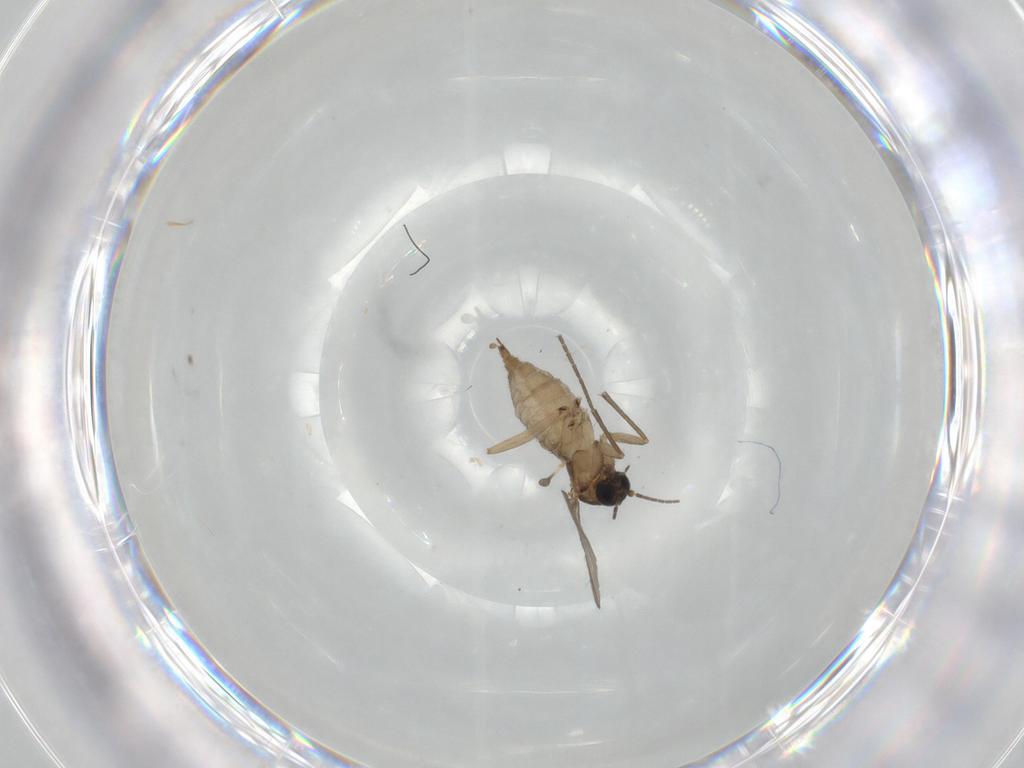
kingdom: Animalia
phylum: Arthropoda
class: Insecta
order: Diptera
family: Sciaridae
